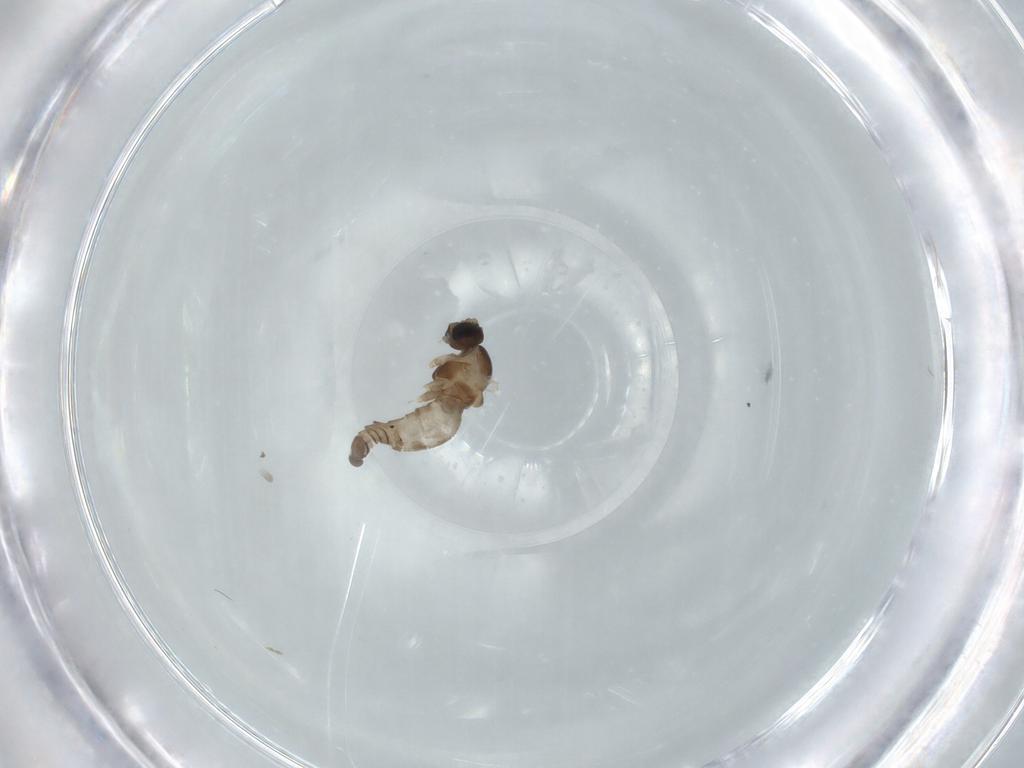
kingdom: Animalia
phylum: Arthropoda
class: Insecta
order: Diptera
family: Cecidomyiidae
